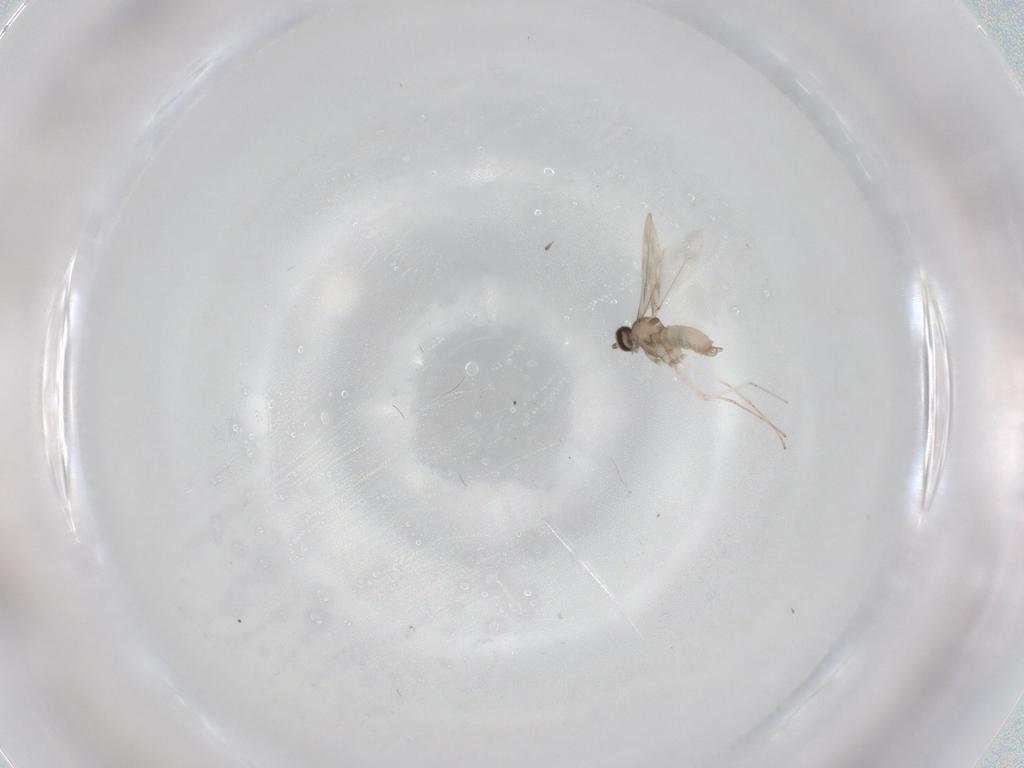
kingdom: Animalia
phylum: Arthropoda
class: Insecta
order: Diptera
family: Cecidomyiidae
